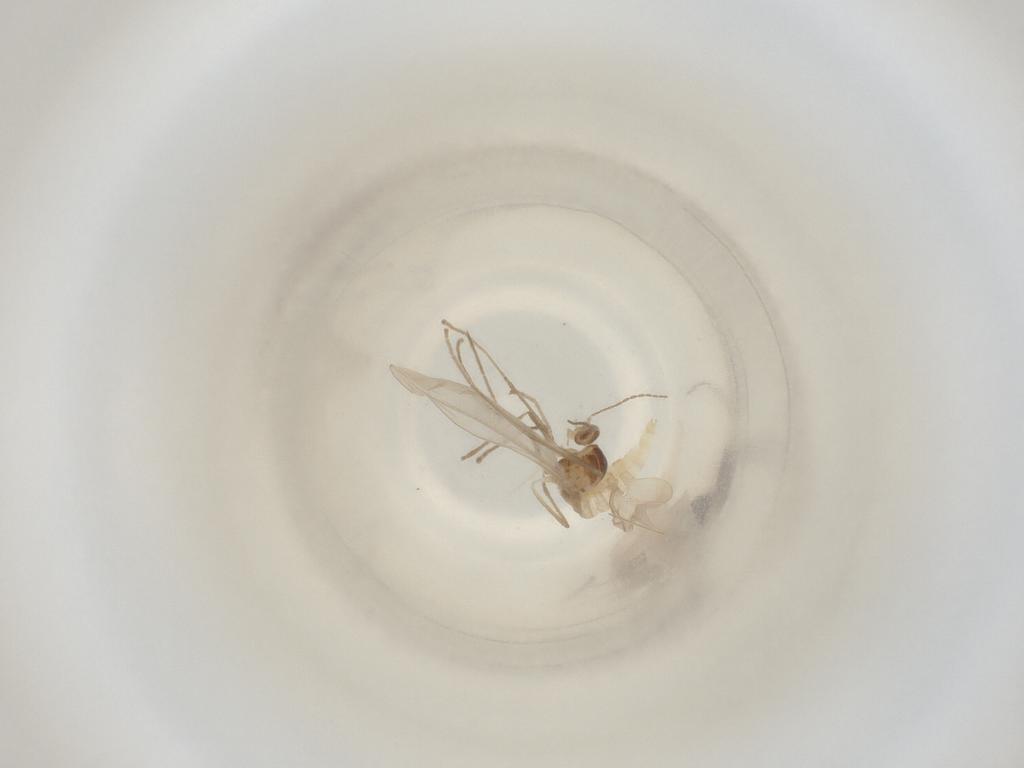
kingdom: Animalia
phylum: Arthropoda
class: Insecta
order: Diptera
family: Cecidomyiidae
